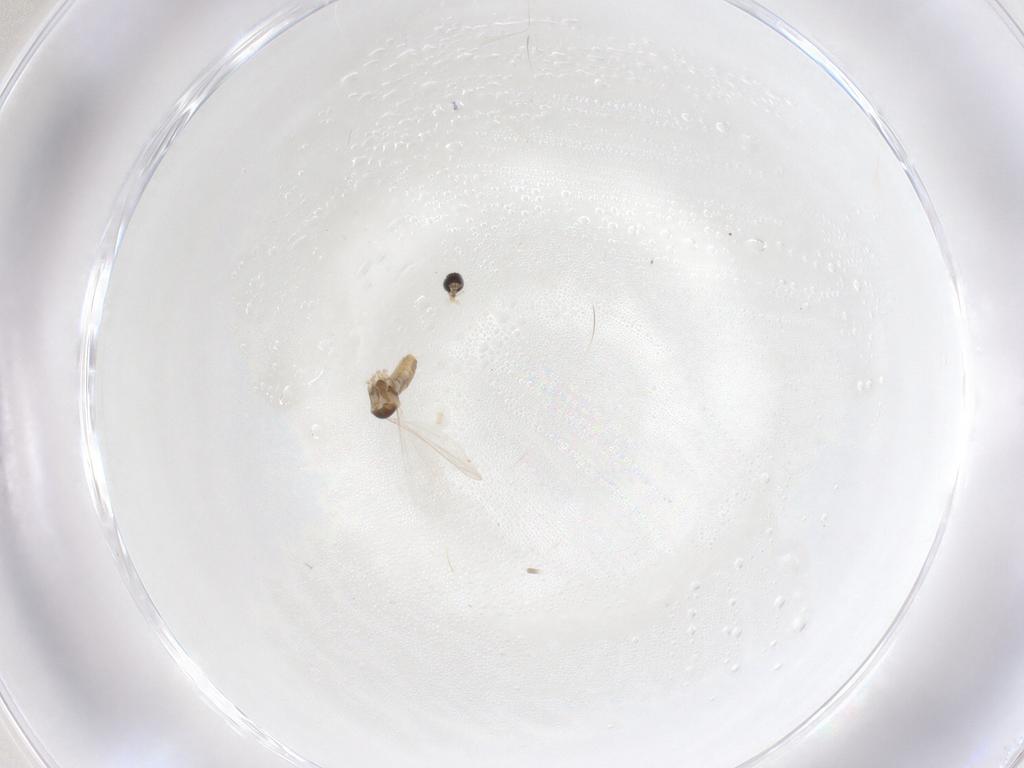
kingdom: Animalia
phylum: Arthropoda
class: Insecta
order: Diptera
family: Cecidomyiidae
